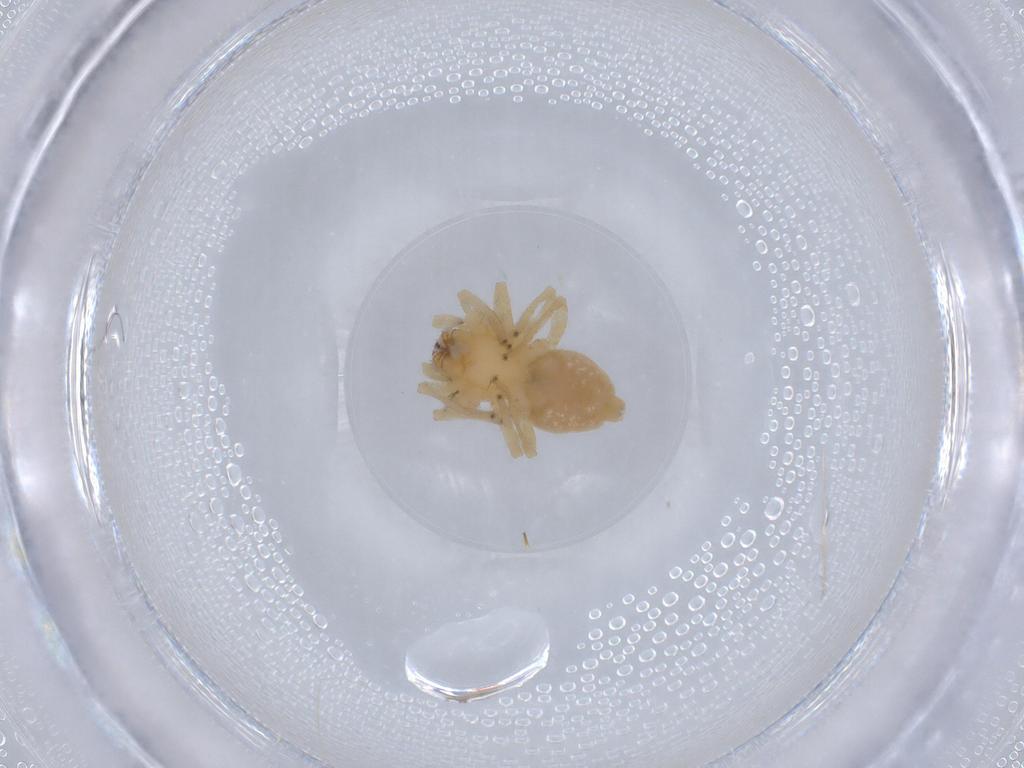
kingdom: Animalia
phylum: Arthropoda
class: Arachnida
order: Araneae
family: Cheiracanthiidae
